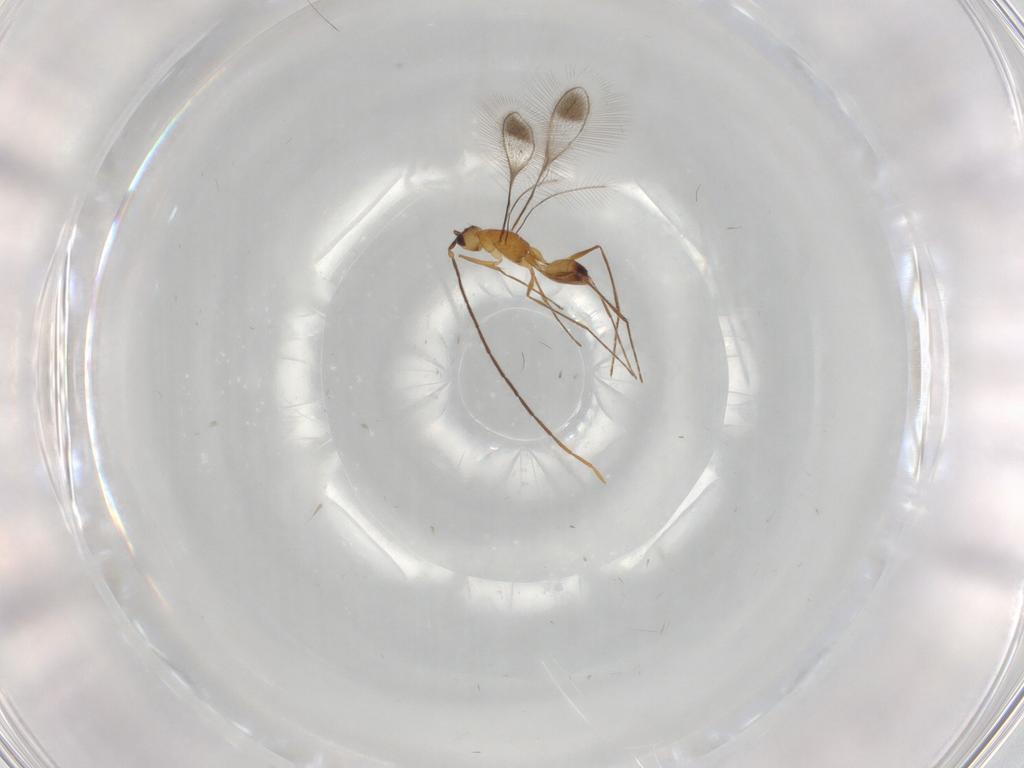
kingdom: Animalia
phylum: Arthropoda
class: Insecta
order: Hymenoptera
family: Mymaridae
